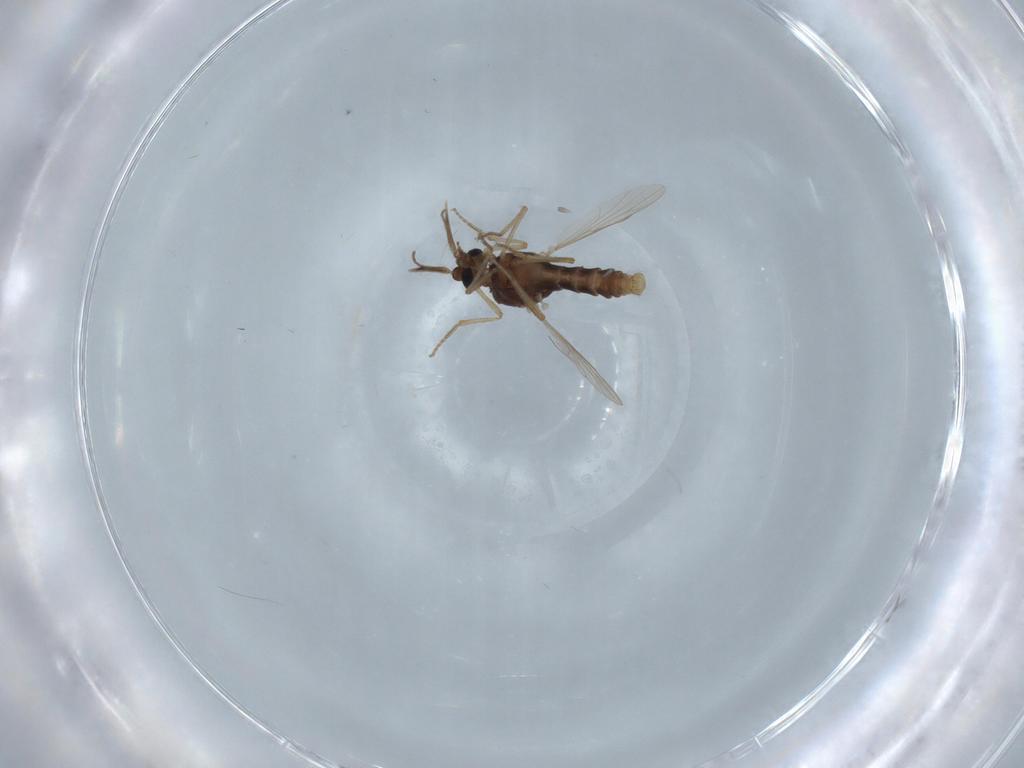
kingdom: Animalia
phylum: Arthropoda
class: Insecta
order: Diptera
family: Ceratopogonidae
